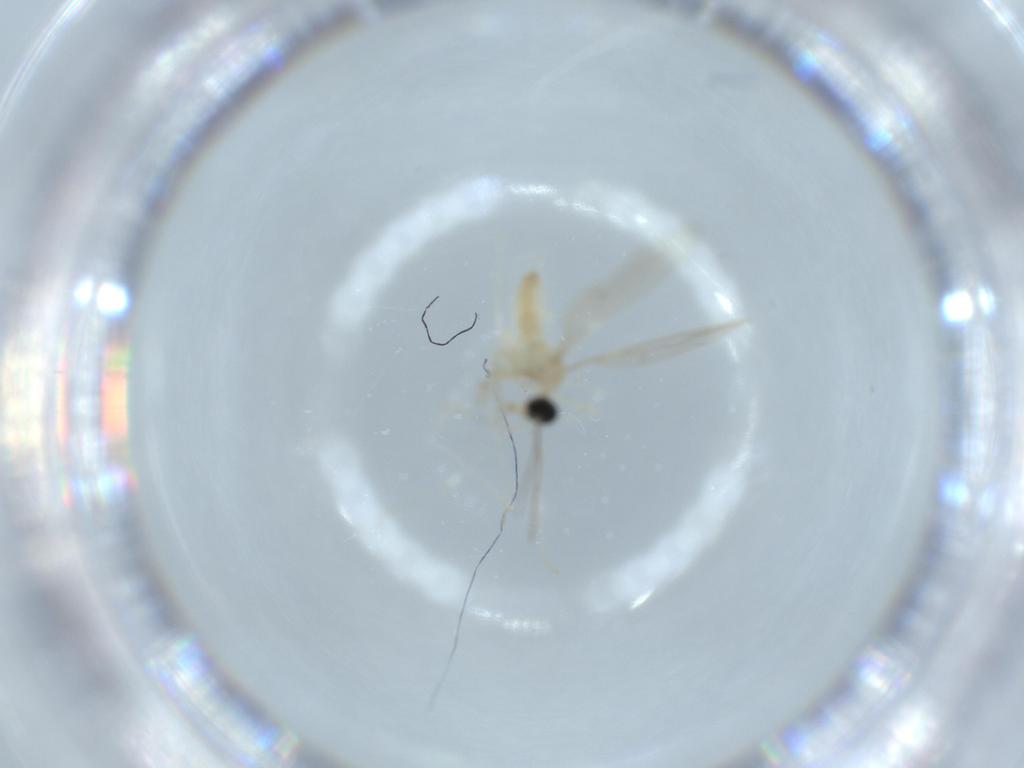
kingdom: Animalia
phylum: Arthropoda
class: Insecta
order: Diptera
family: Cecidomyiidae
